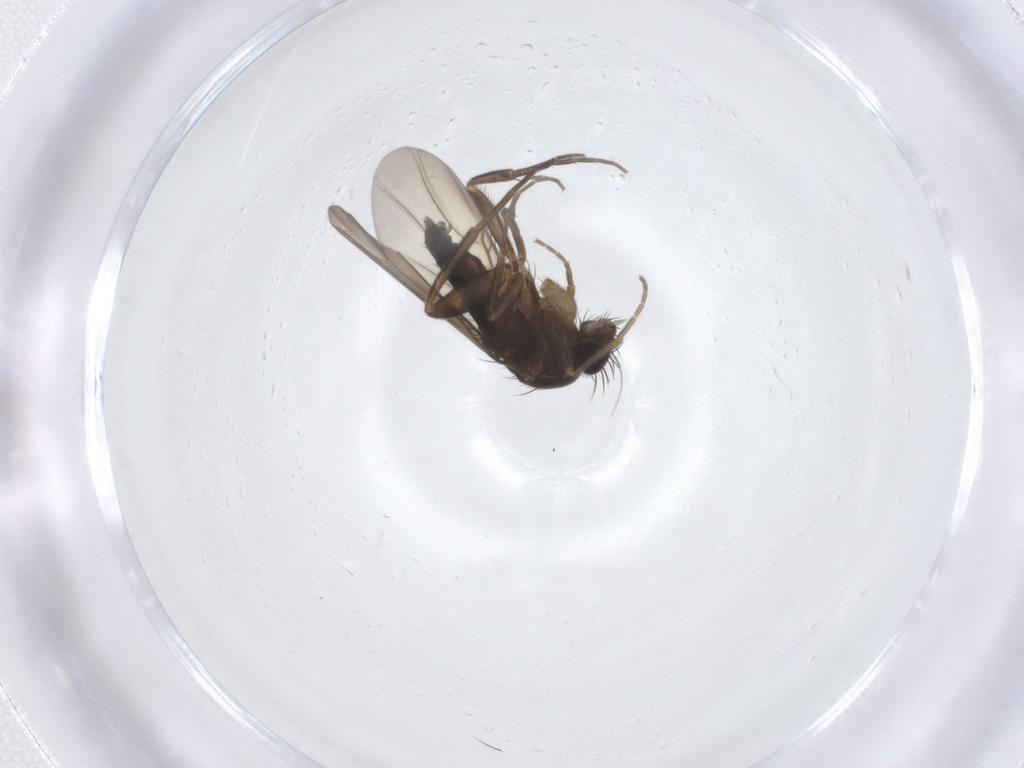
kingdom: Animalia
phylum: Arthropoda
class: Insecta
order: Diptera
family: Phoridae
